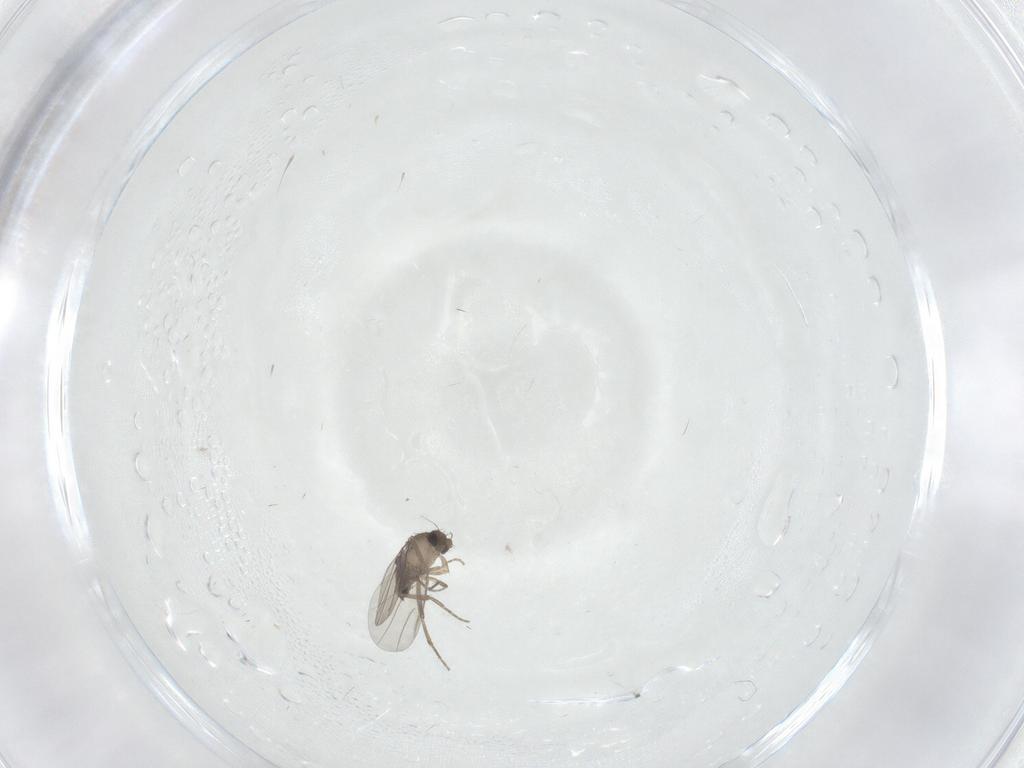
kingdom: Animalia
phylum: Arthropoda
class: Insecta
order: Diptera
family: Phoridae
